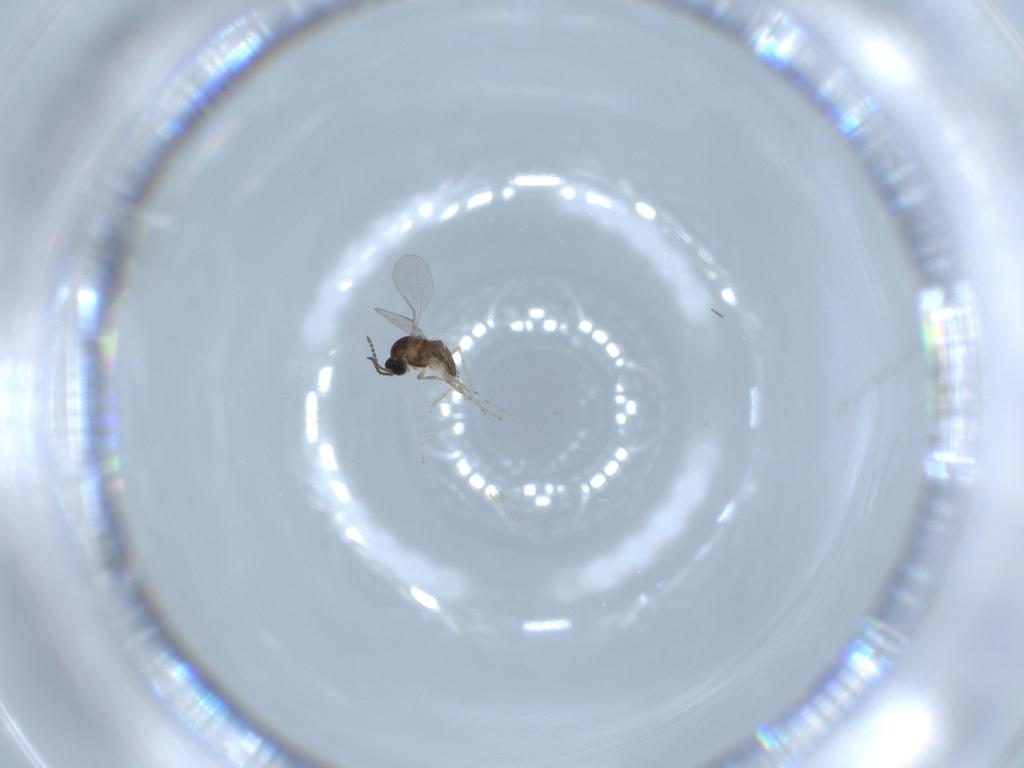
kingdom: Animalia
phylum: Arthropoda
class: Insecta
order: Diptera
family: Cecidomyiidae
